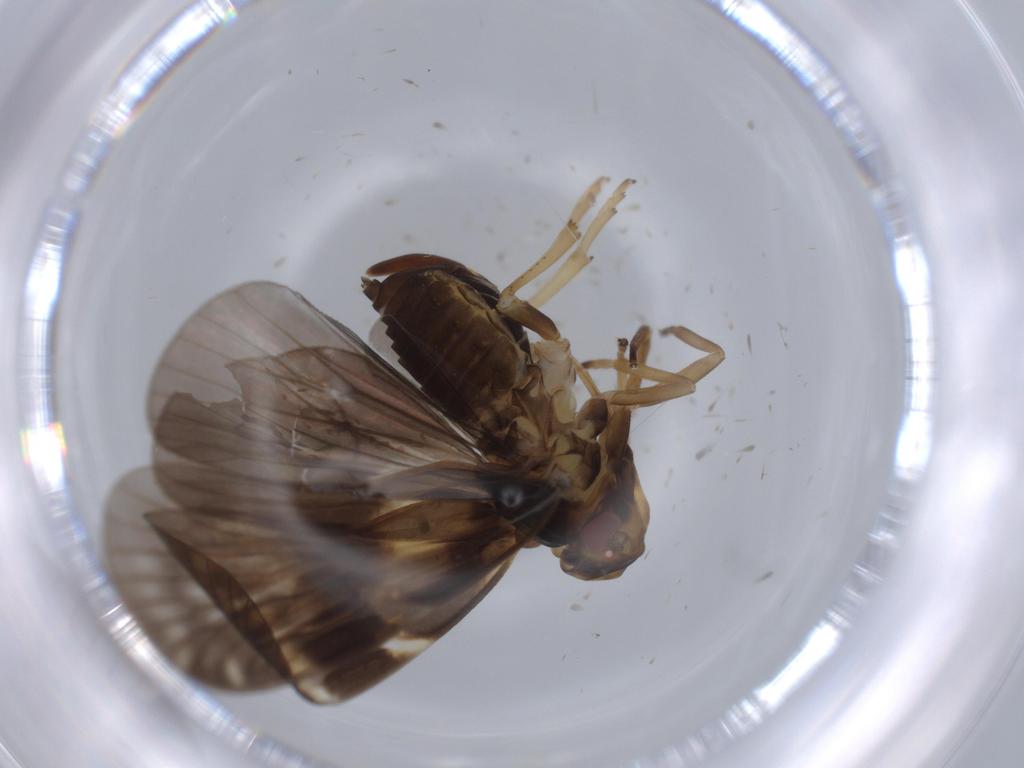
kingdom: Animalia
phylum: Arthropoda
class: Insecta
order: Hemiptera
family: Cixiidae
